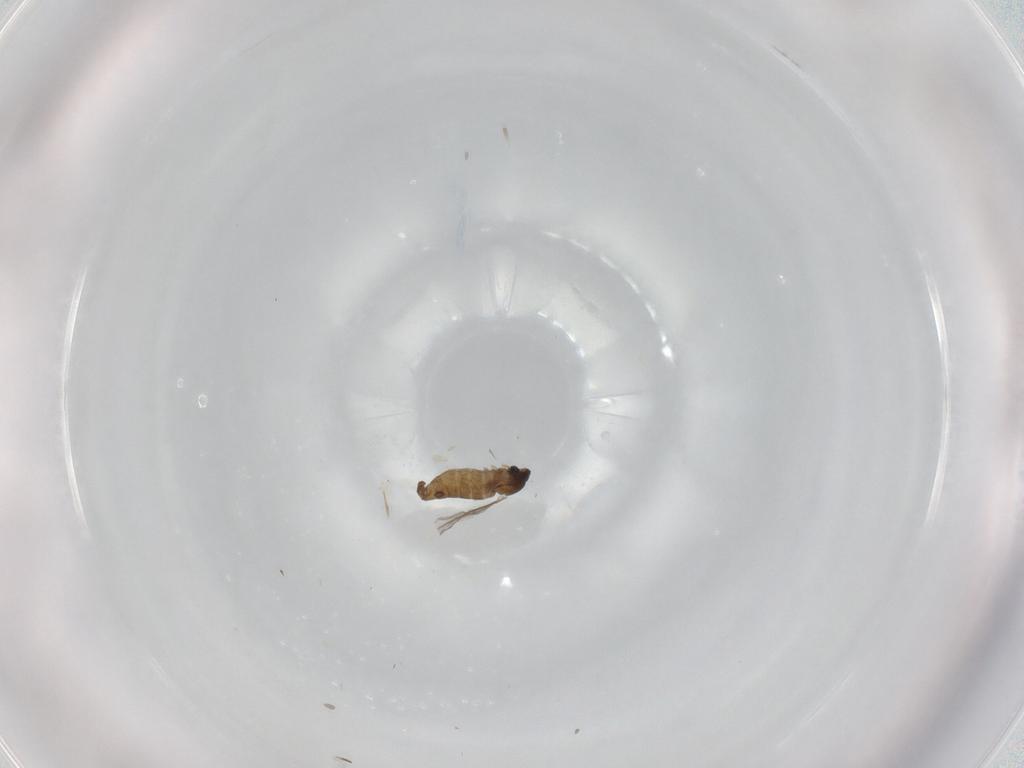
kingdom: Animalia
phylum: Arthropoda
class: Insecta
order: Diptera
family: Cecidomyiidae
